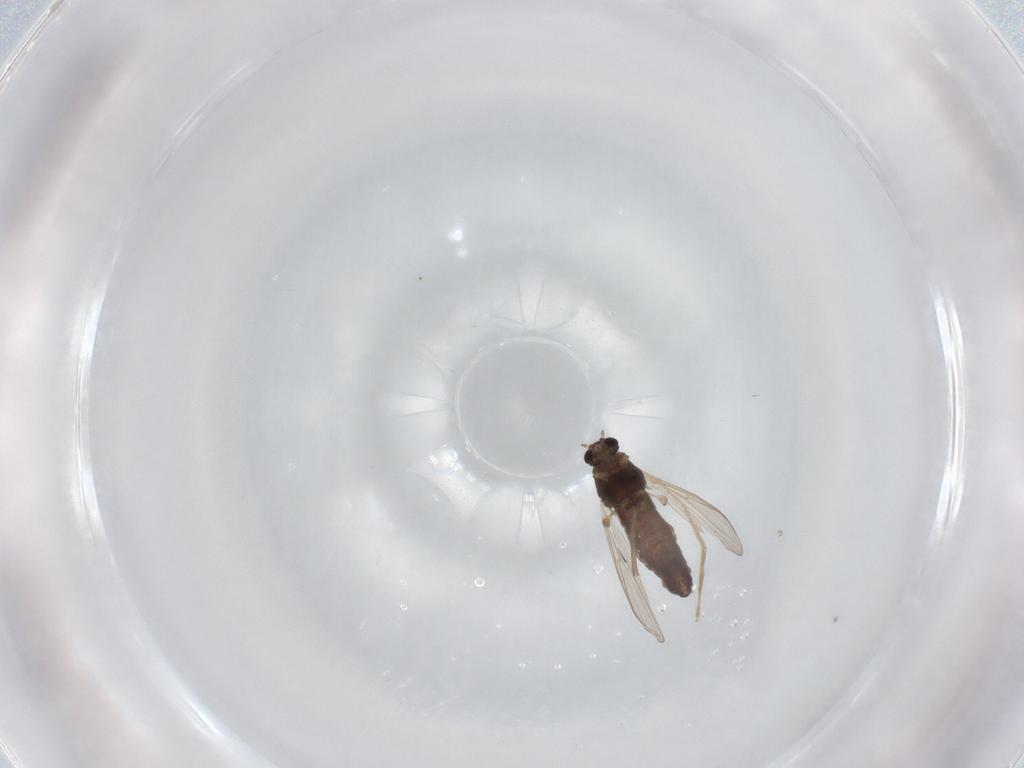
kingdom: Animalia
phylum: Arthropoda
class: Insecta
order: Diptera
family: Chironomidae
